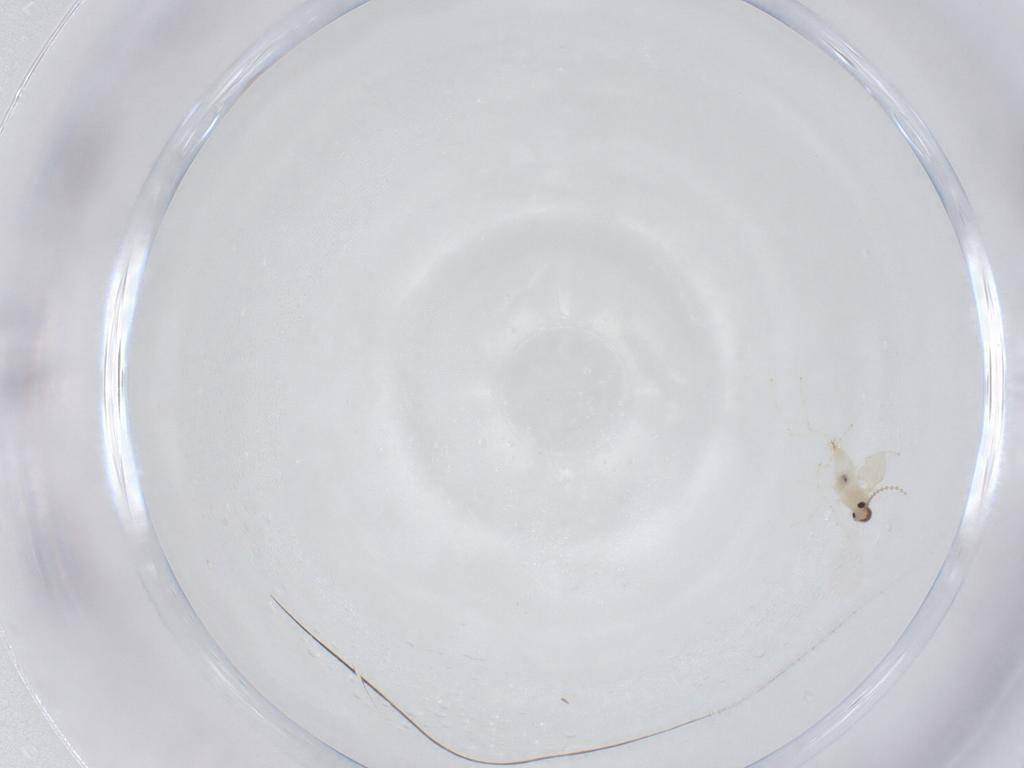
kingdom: Animalia
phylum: Arthropoda
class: Insecta
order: Diptera
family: Cecidomyiidae
